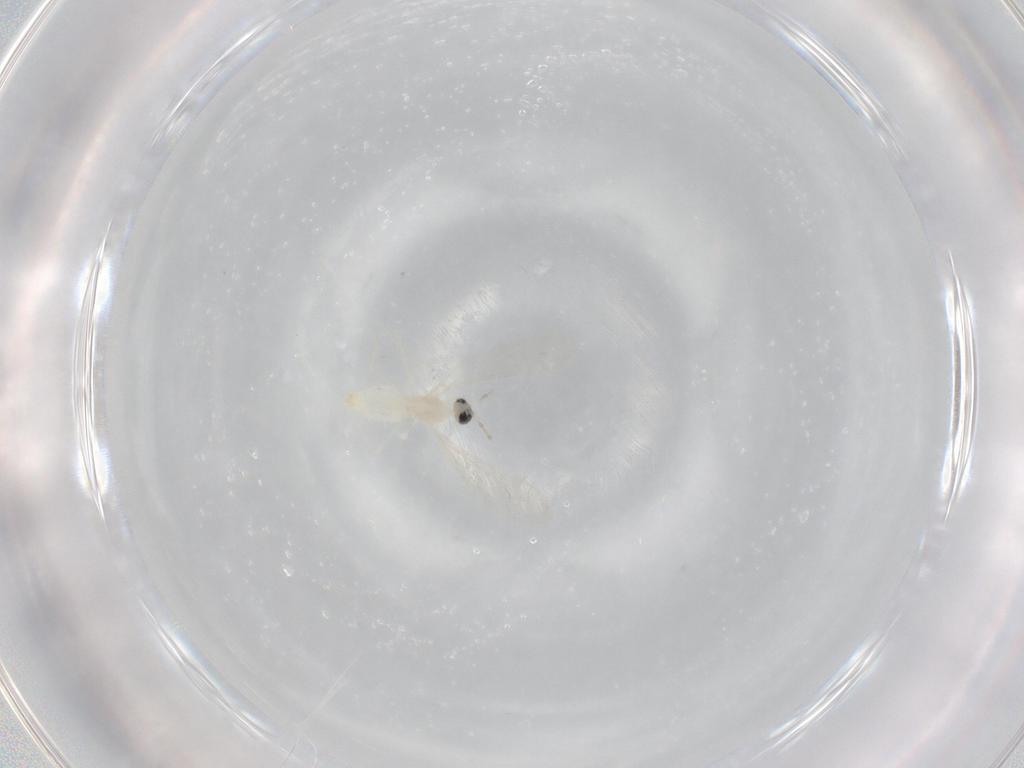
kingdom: Animalia
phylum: Arthropoda
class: Insecta
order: Diptera
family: Cecidomyiidae
